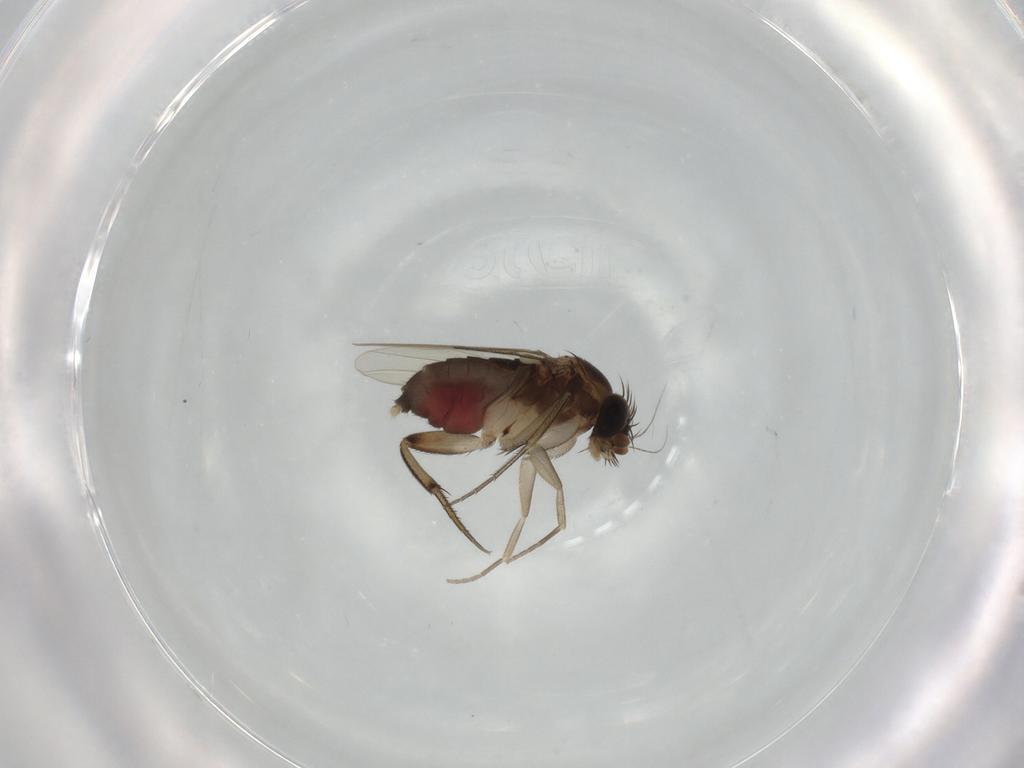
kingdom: Animalia
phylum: Arthropoda
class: Insecta
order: Diptera
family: Phoridae
